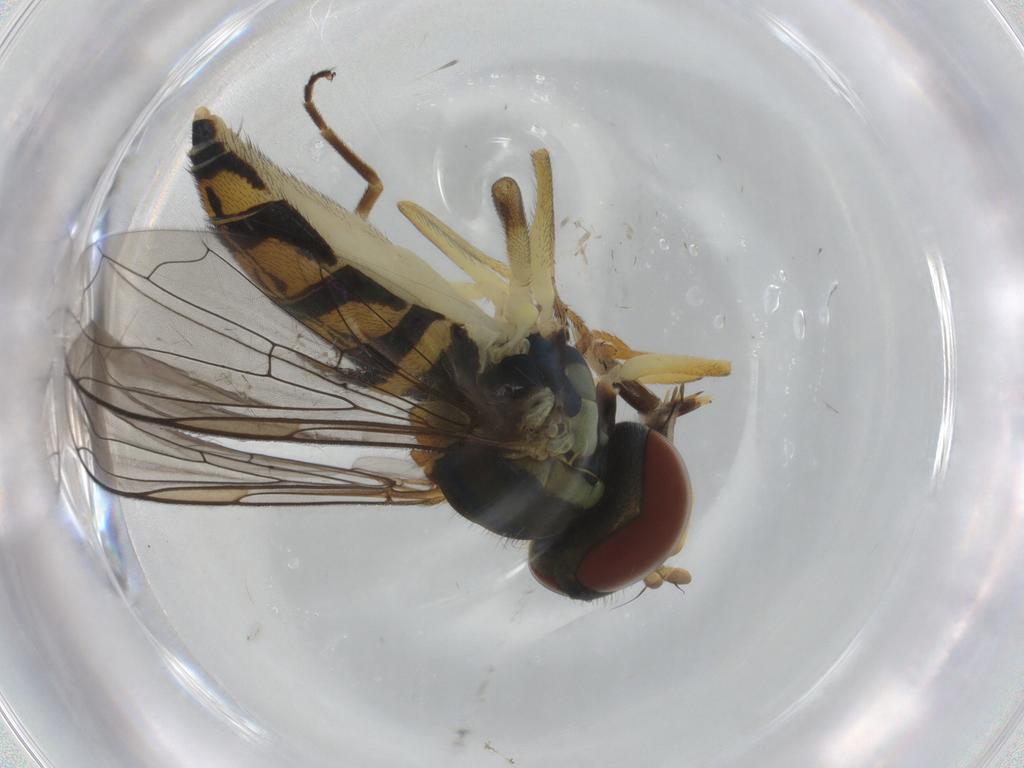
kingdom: Animalia
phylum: Arthropoda
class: Insecta
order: Diptera
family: Syrphidae
